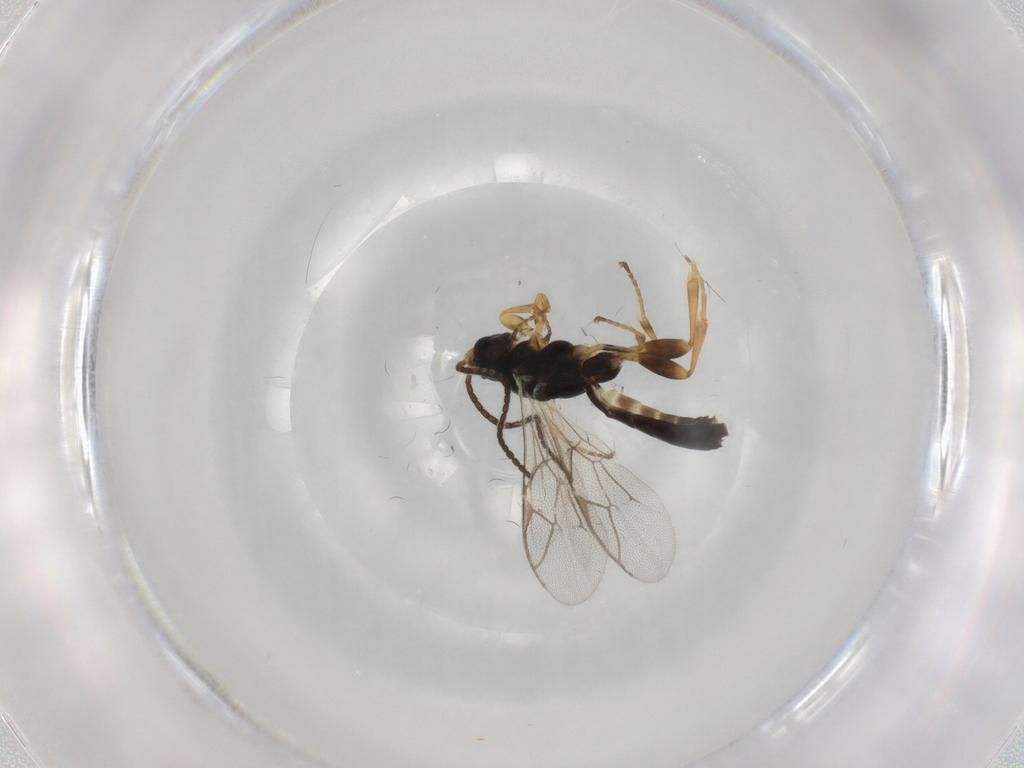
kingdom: Animalia
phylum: Arthropoda
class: Insecta
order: Hymenoptera
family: Ichneumonidae
